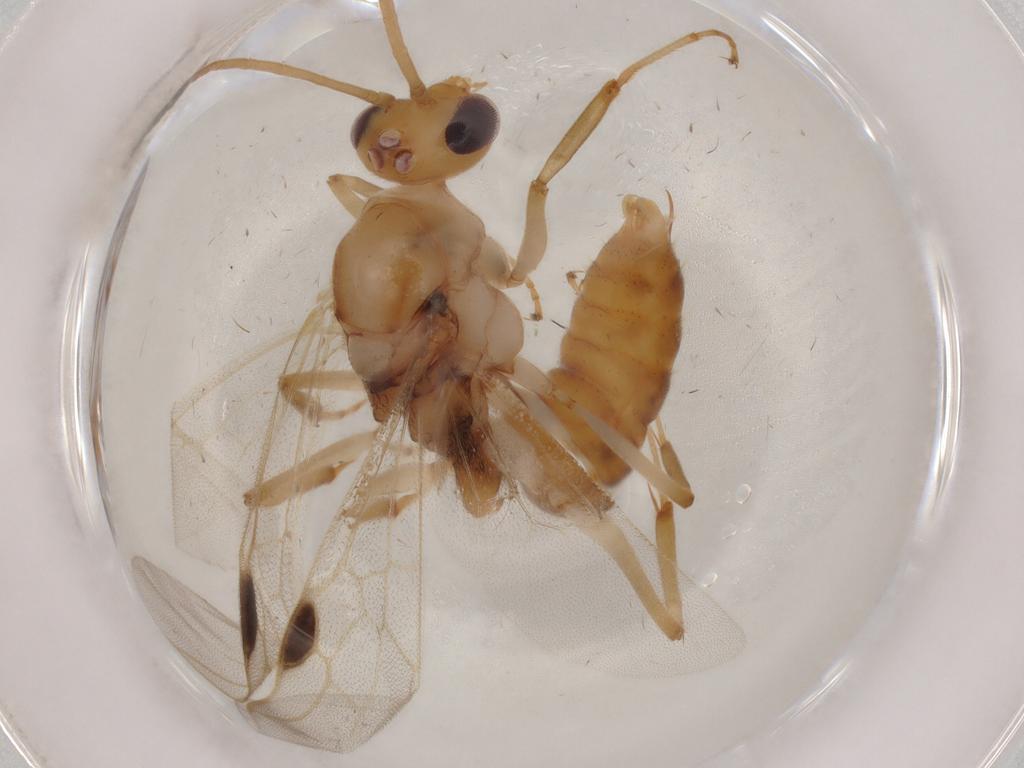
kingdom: Animalia
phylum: Arthropoda
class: Insecta
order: Hymenoptera
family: Formicidae
